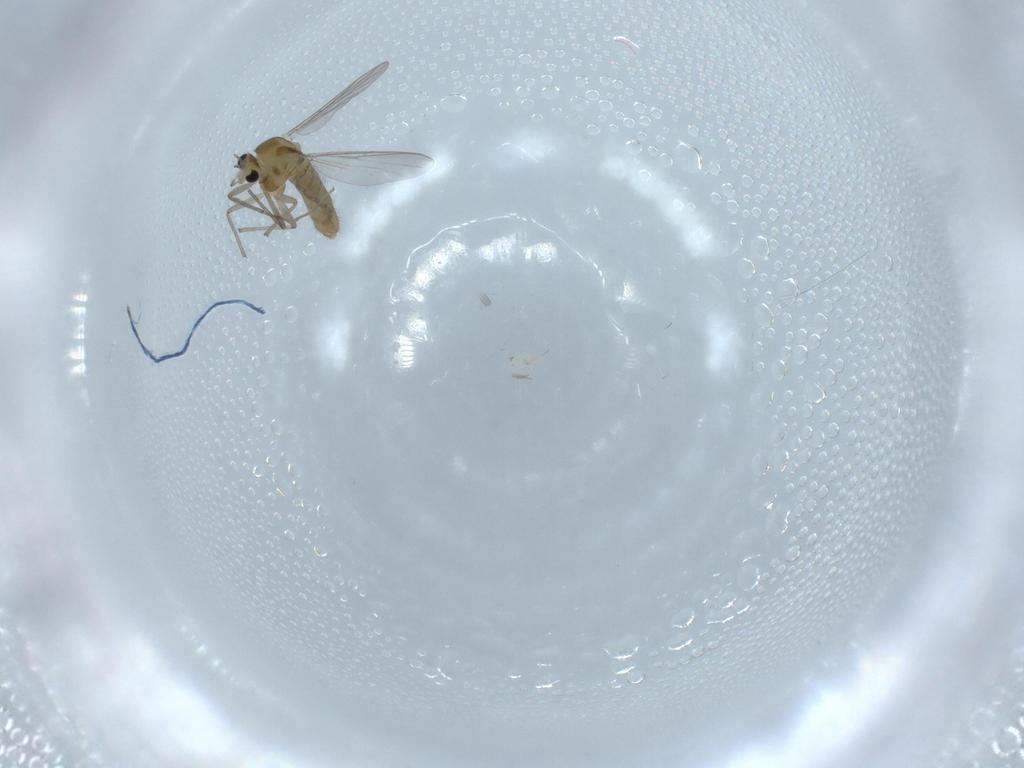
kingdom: Animalia
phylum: Arthropoda
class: Insecta
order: Diptera
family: Chironomidae
